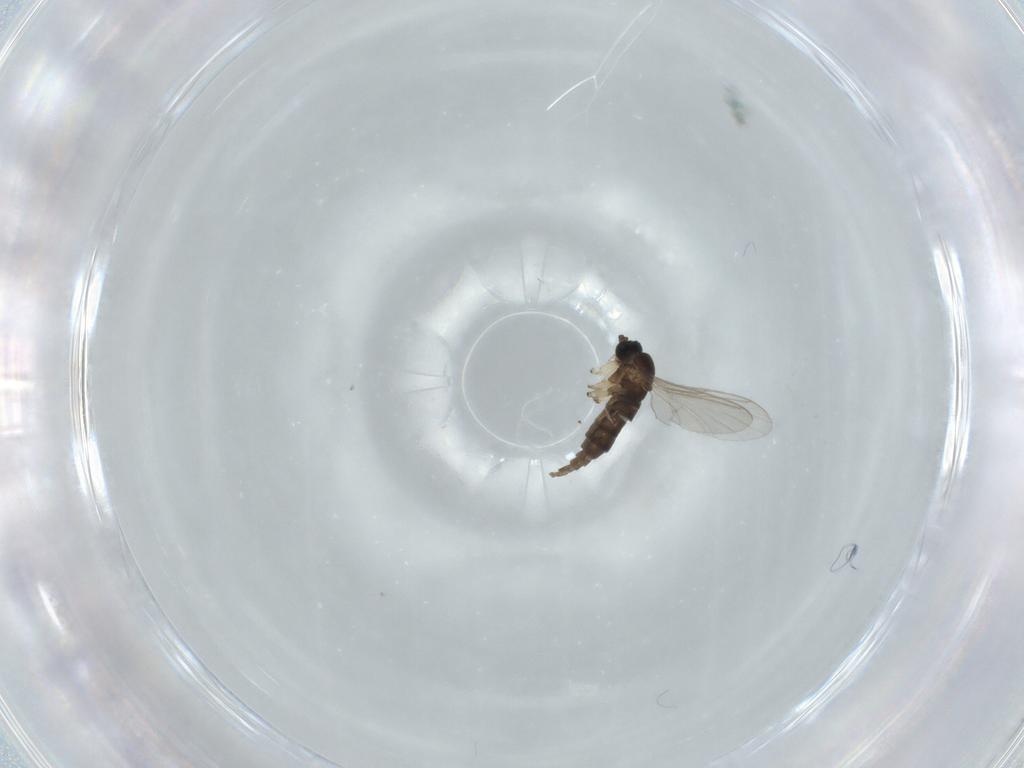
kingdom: Animalia
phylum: Arthropoda
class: Insecta
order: Diptera
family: Sciaridae
